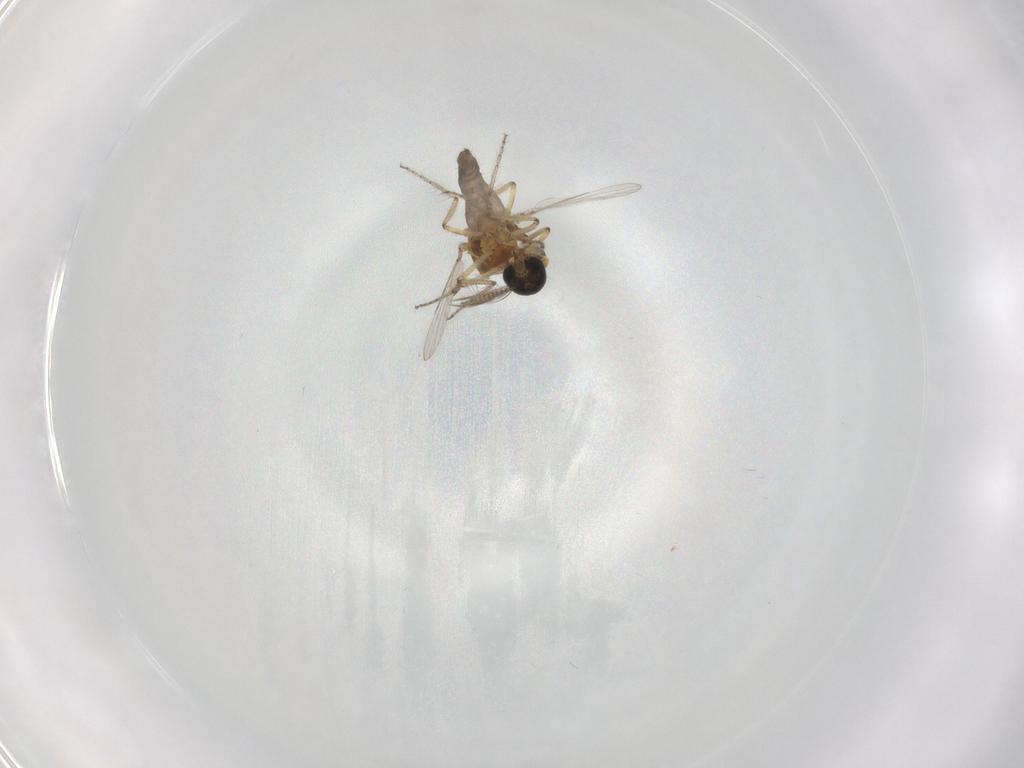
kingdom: Animalia
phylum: Arthropoda
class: Insecta
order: Diptera
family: Ceratopogonidae
